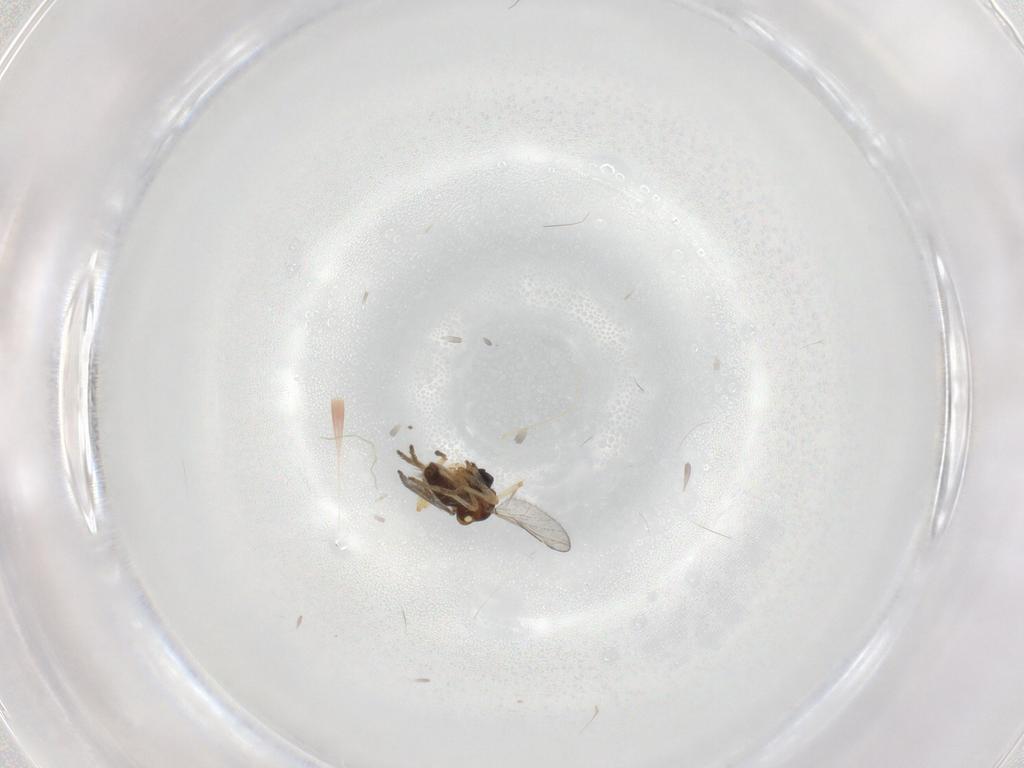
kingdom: Animalia
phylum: Arthropoda
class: Insecta
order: Diptera
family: Ceratopogonidae
